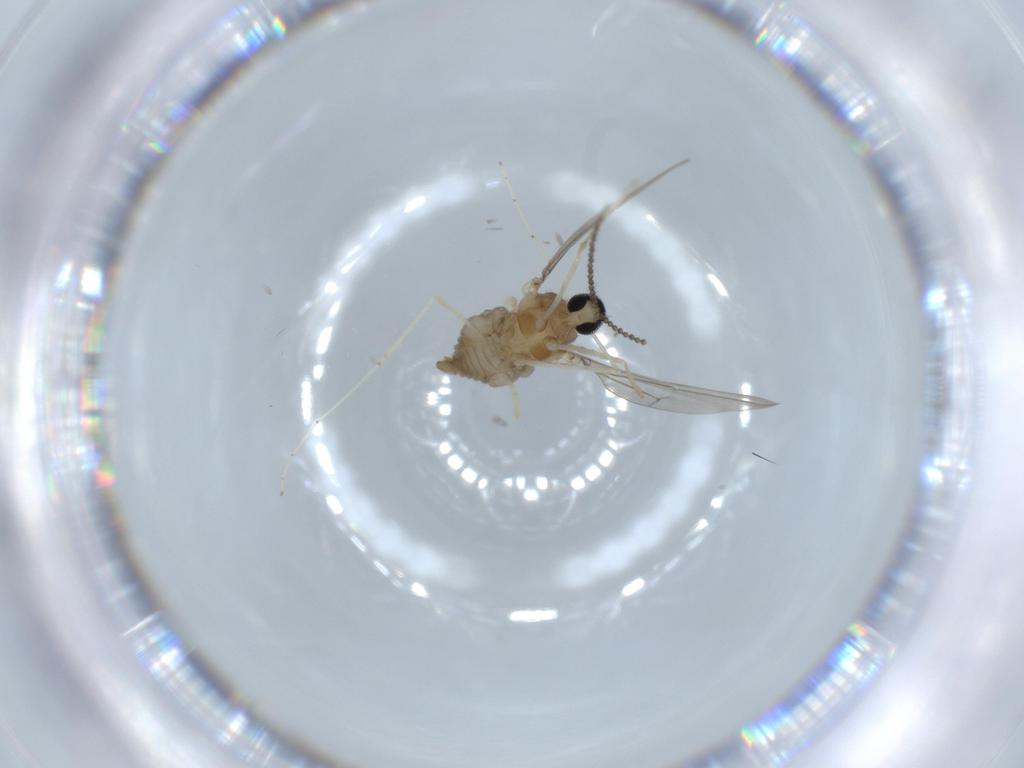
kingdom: Animalia
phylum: Arthropoda
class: Insecta
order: Diptera
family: Cecidomyiidae
